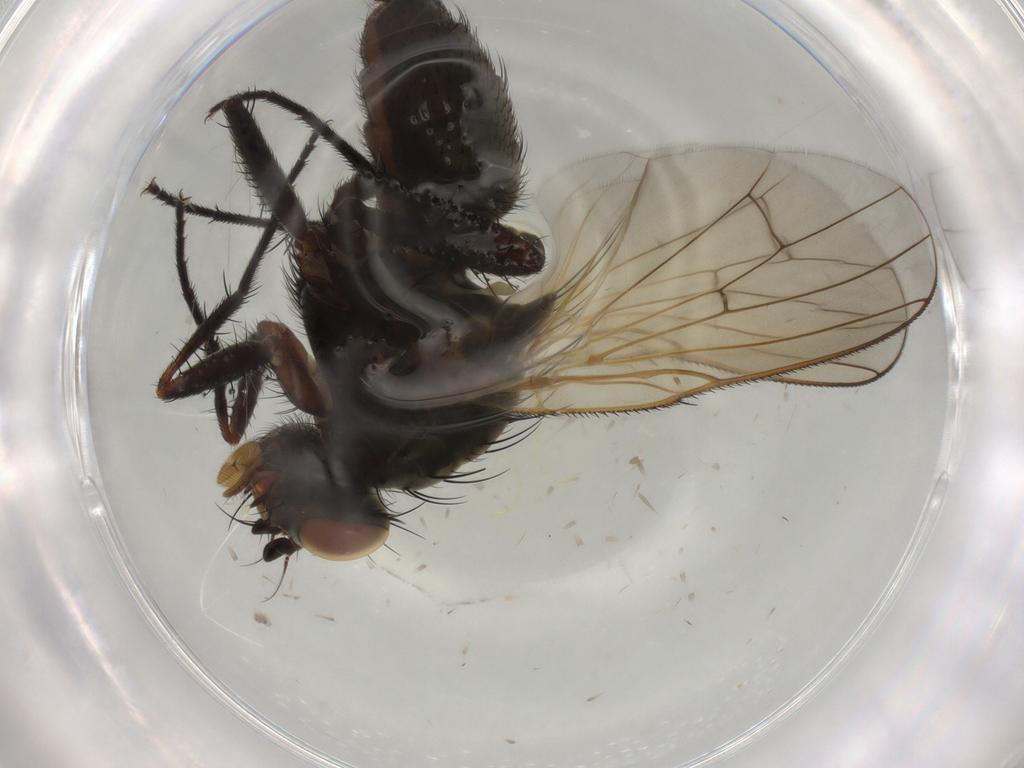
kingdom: Animalia
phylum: Arthropoda
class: Insecta
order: Diptera
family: Anthomyiidae
